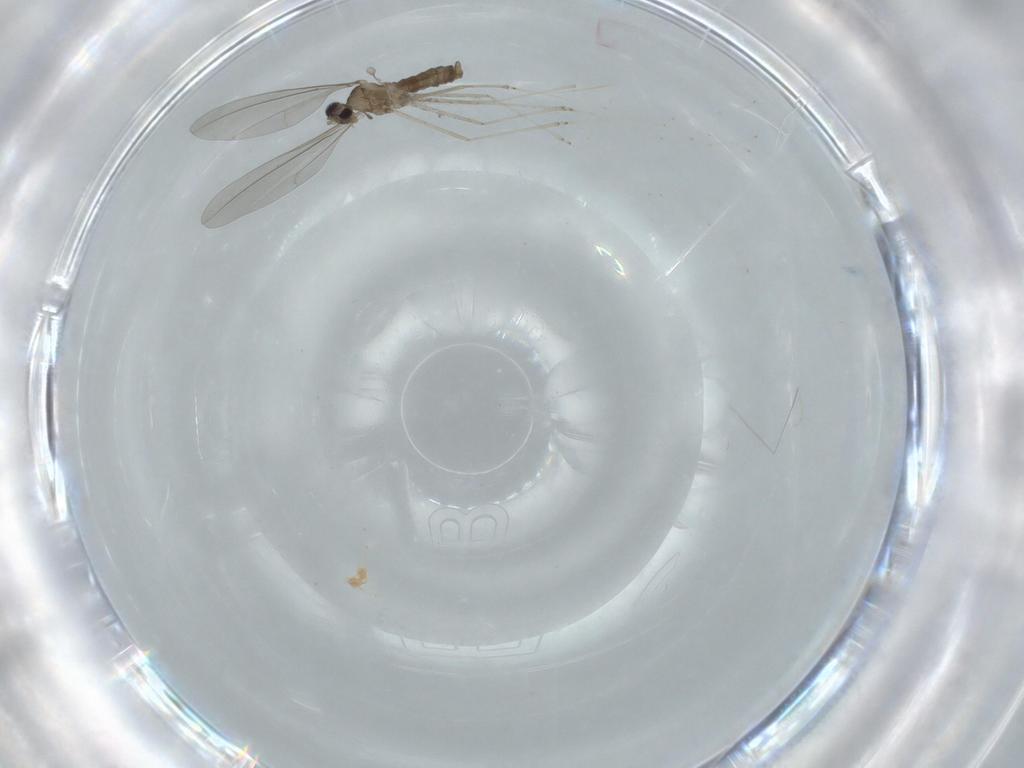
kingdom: Animalia
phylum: Arthropoda
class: Insecta
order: Diptera
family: Chloropidae
